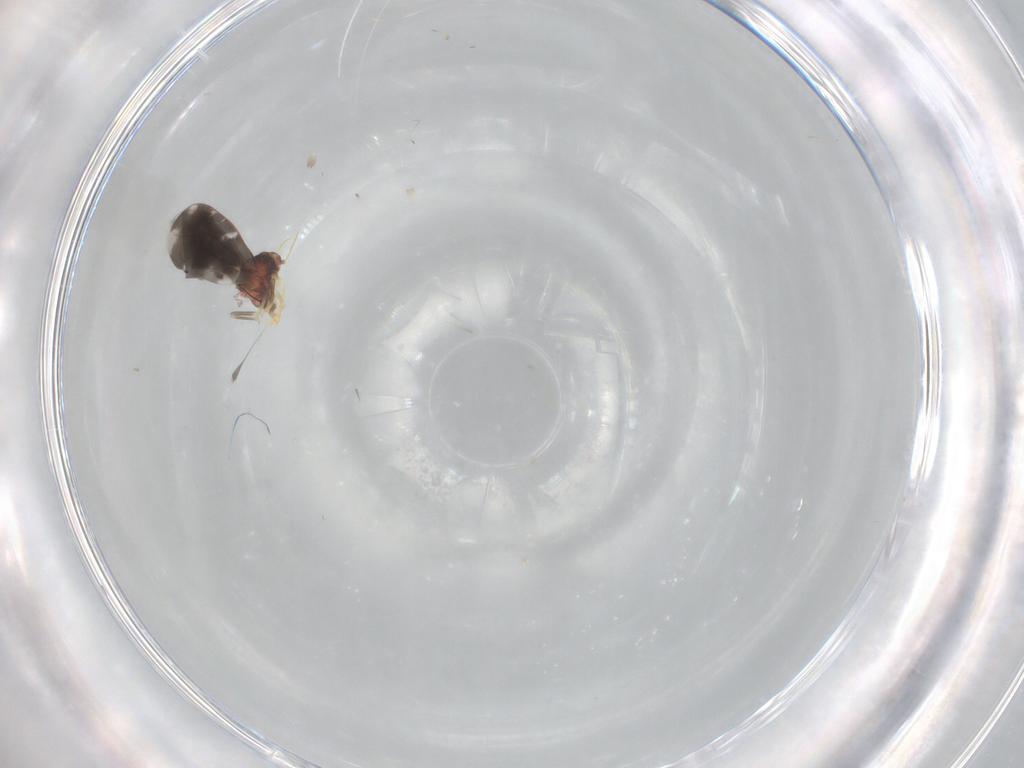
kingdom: Animalia
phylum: Arthropoda
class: Insecta
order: Hemiptera
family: Aleyrodidae
